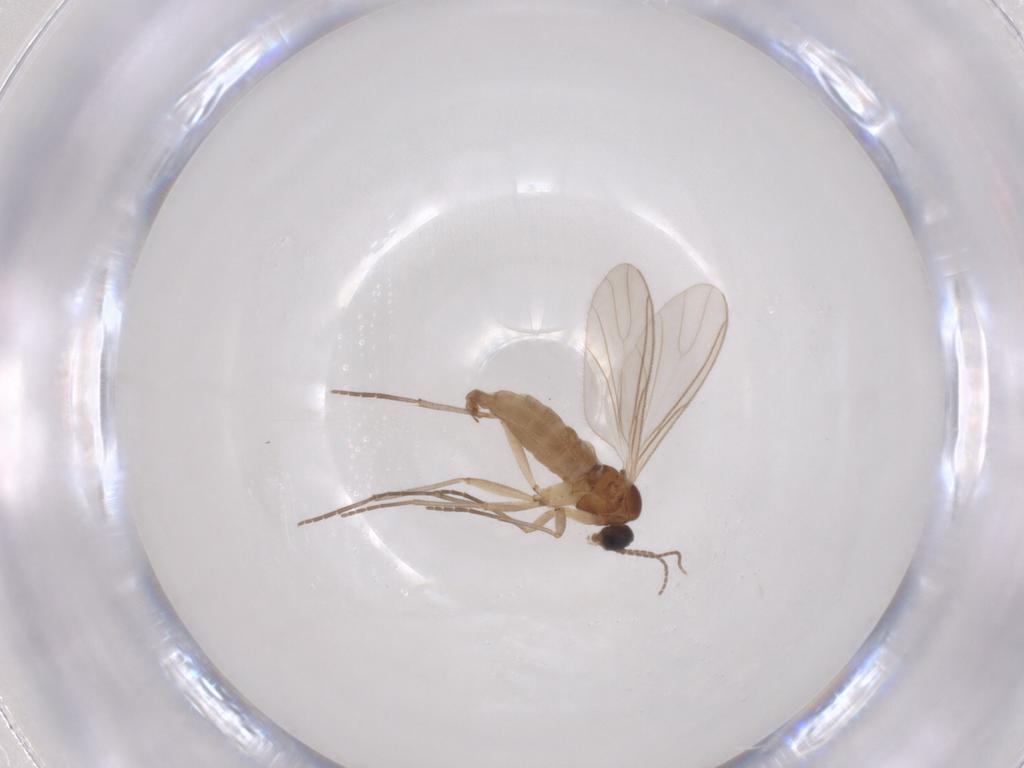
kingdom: Animalia
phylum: Arthropoda
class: Insecta
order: Diptera
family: Sciaridae
